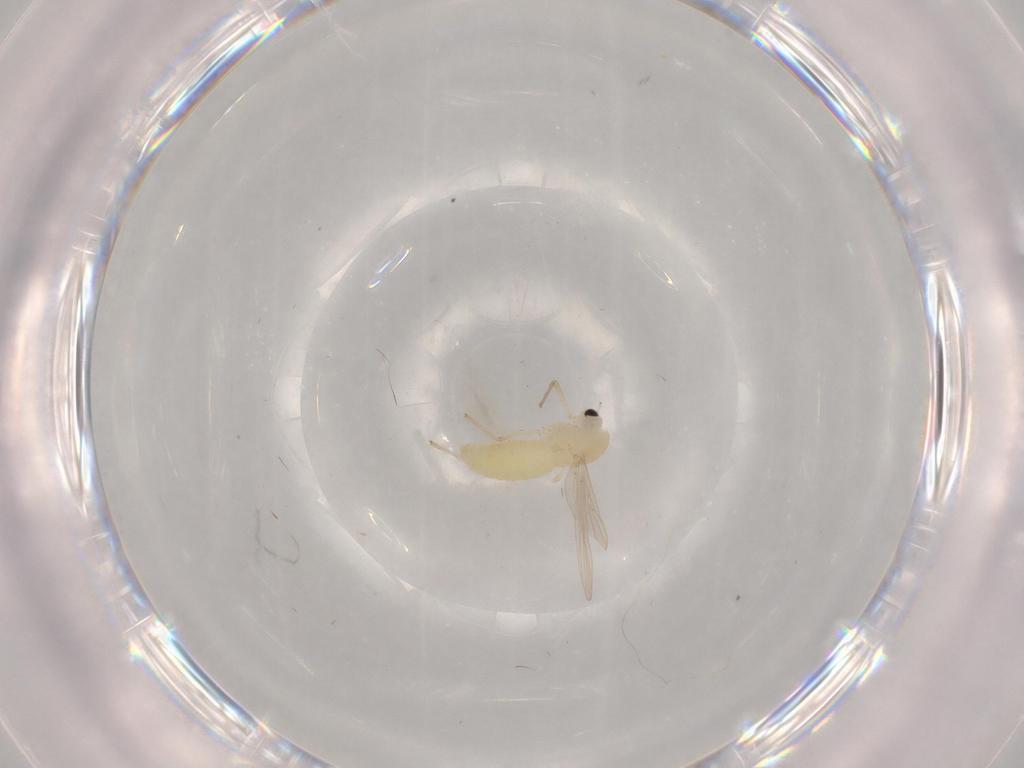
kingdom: Animalia
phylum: Arthropoda
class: Insecta
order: Diptera
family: Chironomidae
